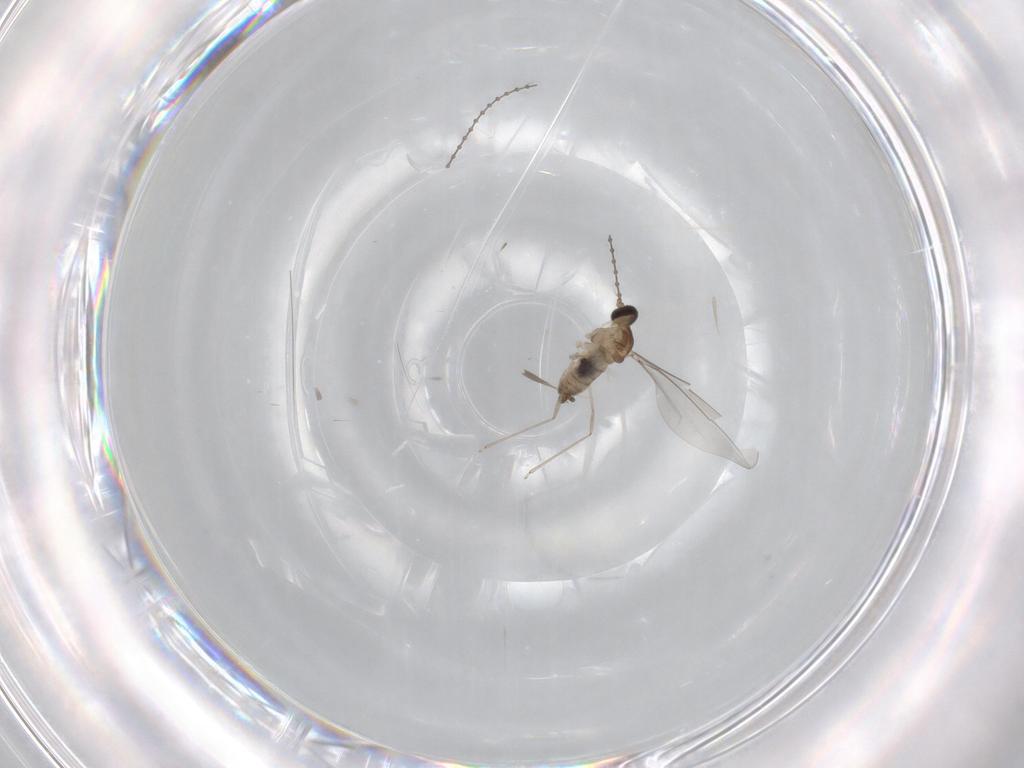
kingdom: Animalia
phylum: Arthropoda
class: Insecta
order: Diptera
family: Cecidomyiidae
